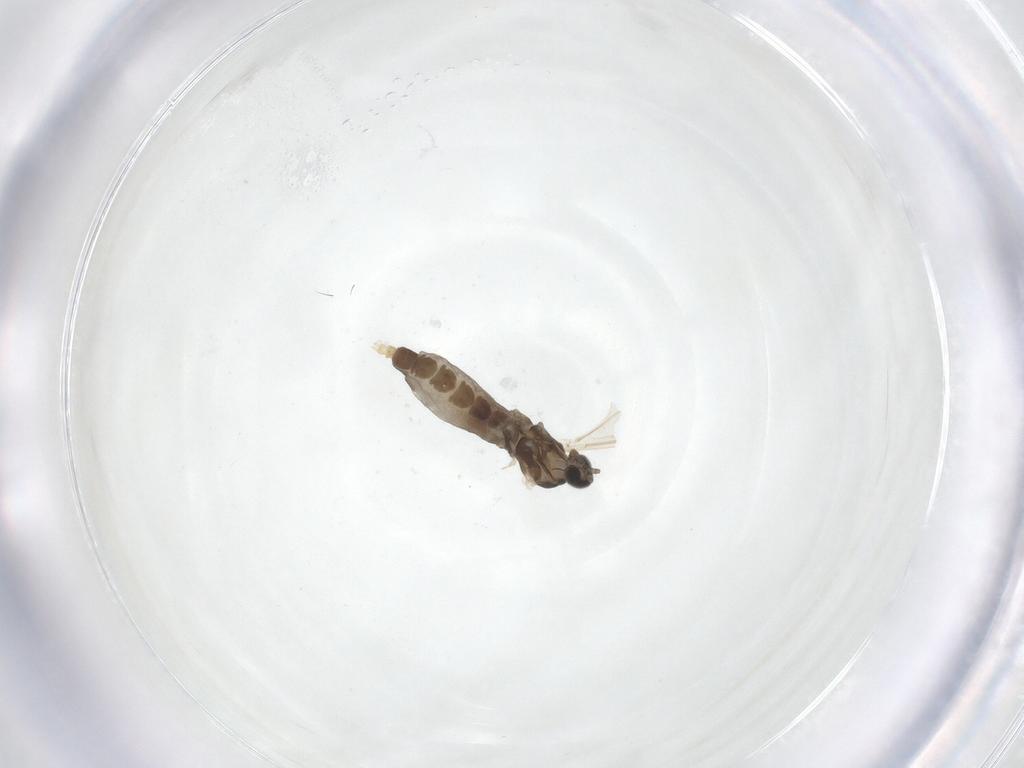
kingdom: Animalia
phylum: Arthropoda
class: Insecta
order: Diptera
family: Cecidomyiidae
